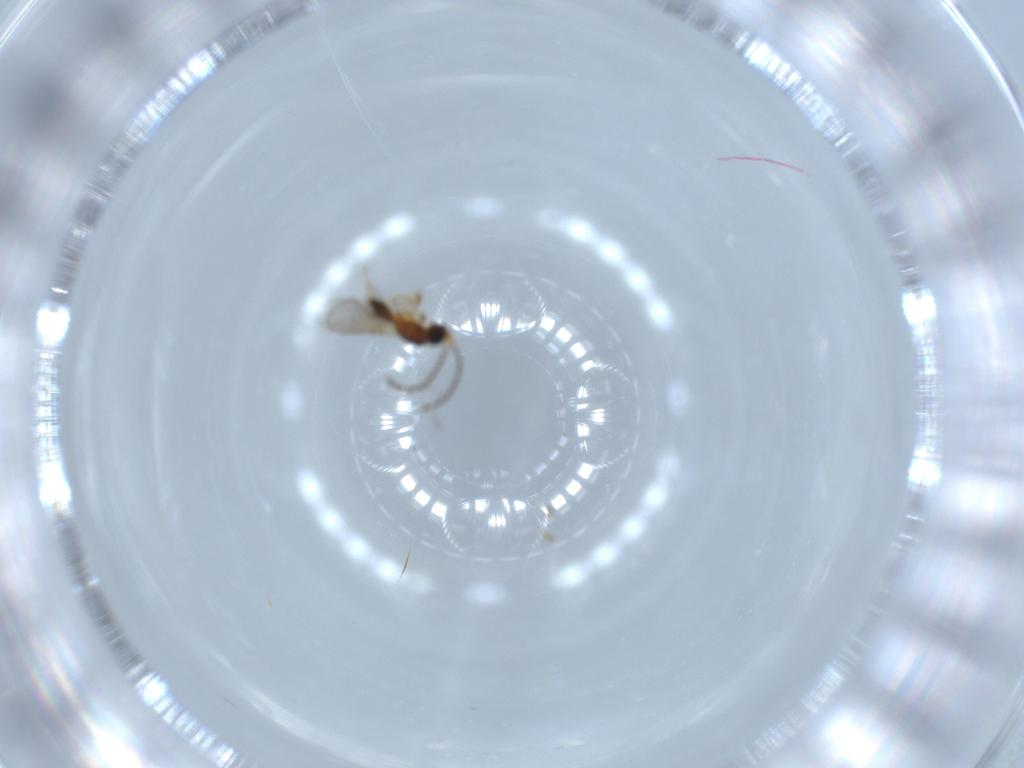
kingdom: Animalia
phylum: Arthropoda
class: Insecta
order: Hymenoptera
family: Diapriidae
